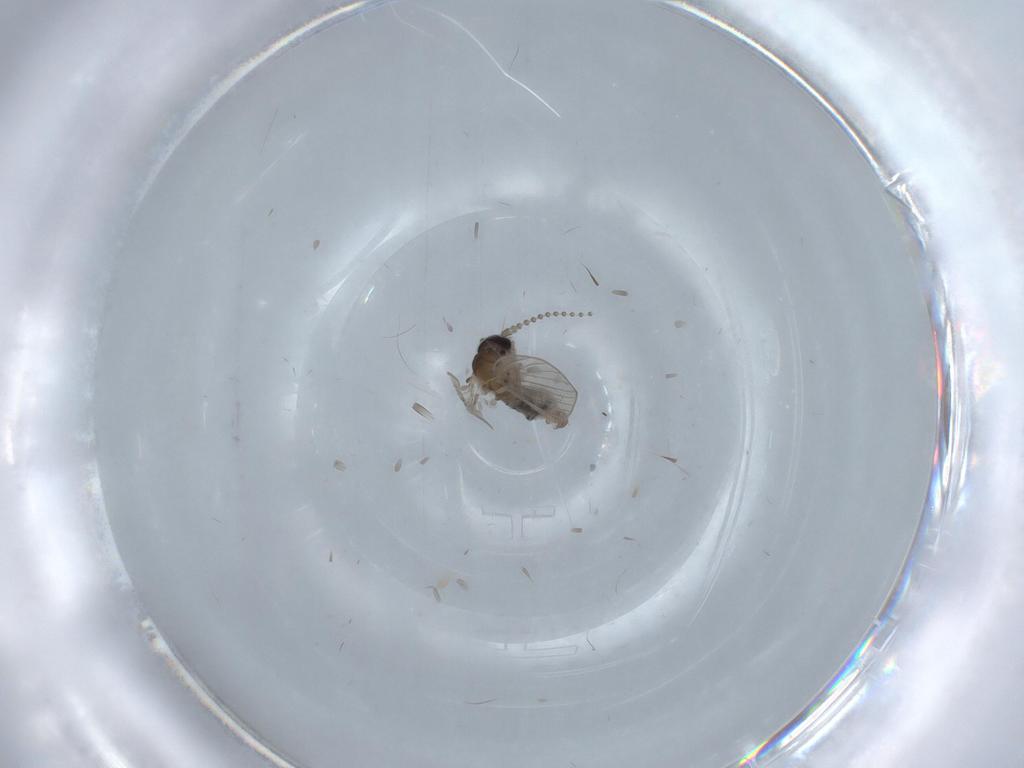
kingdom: Animalia
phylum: Arthropoda
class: Insecta
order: Diptera
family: Psychodidae
